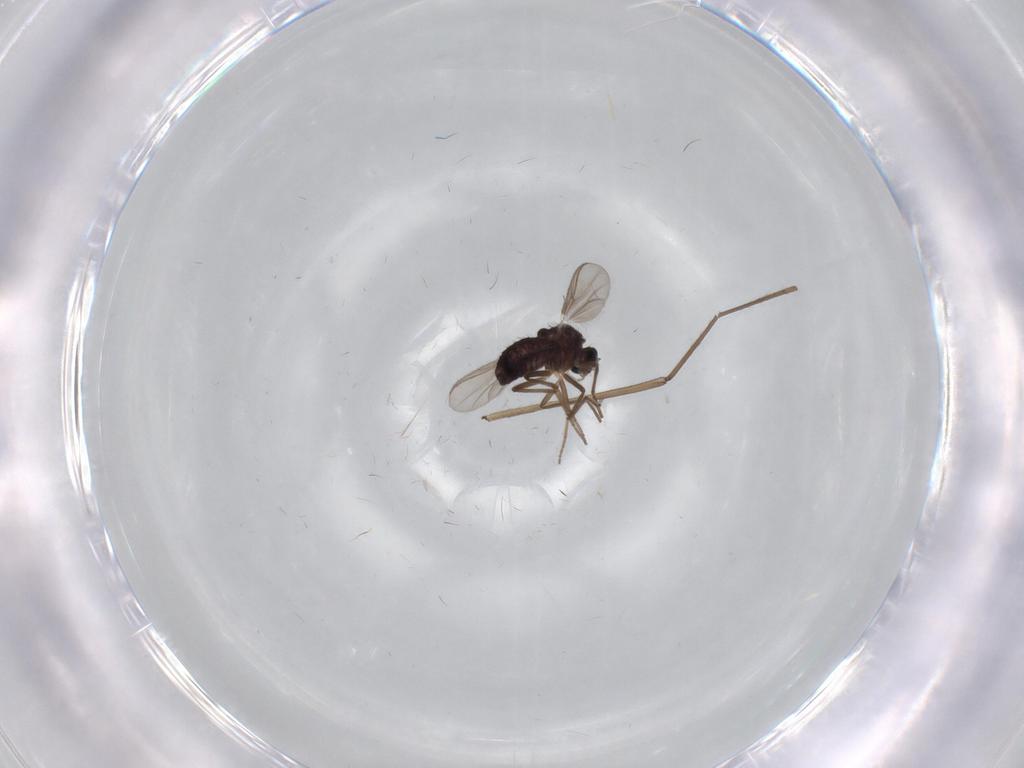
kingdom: Animalia
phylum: Arthropoda
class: Insecta
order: Diptera
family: Chironomidae
